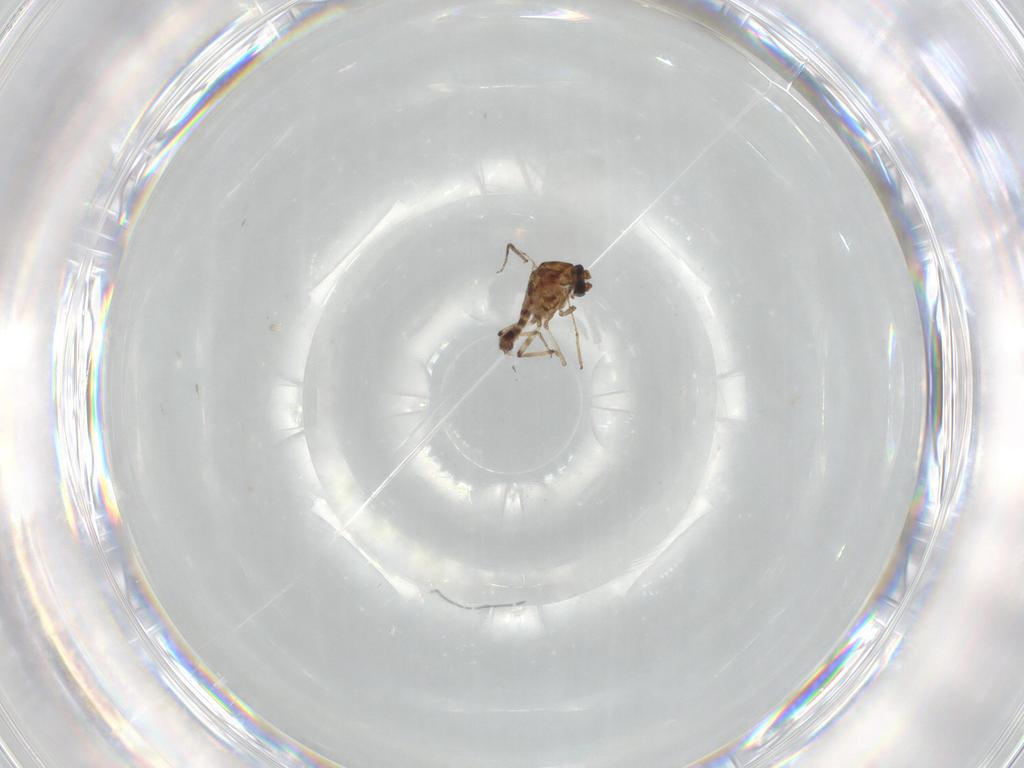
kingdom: Animalia
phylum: Arthropoda
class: Insecta
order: Diptera
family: Ceratopogonidae
